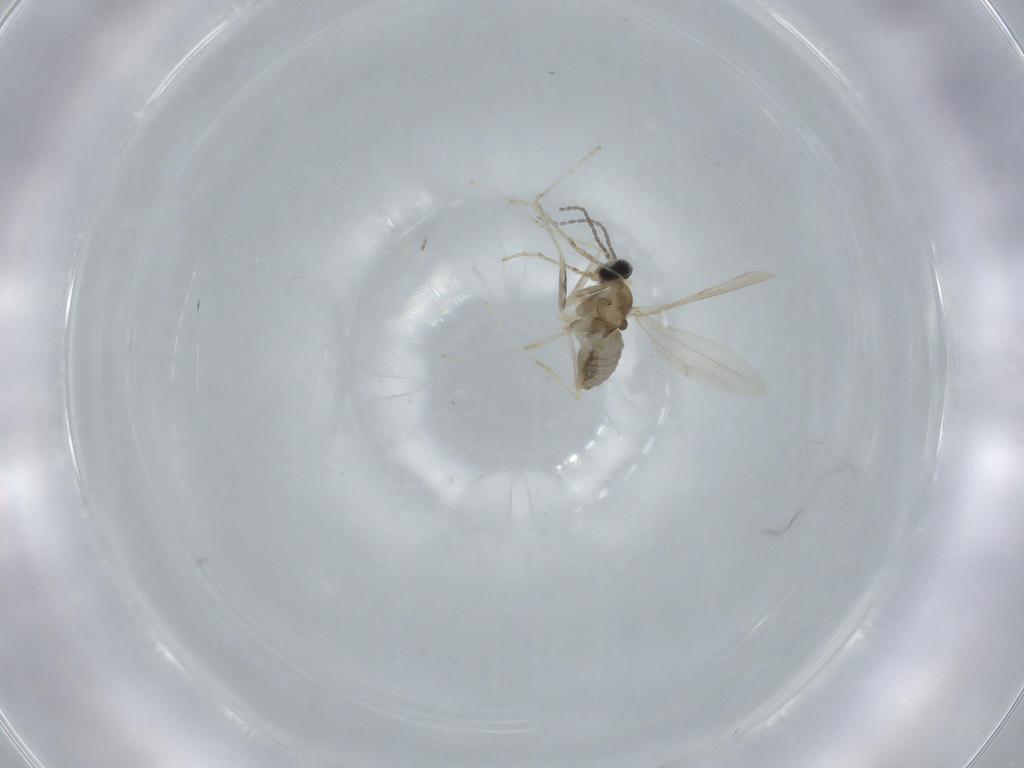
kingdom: Animalia
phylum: Arthropoda
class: Insecta
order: Diptera
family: Cecidomyiidae
